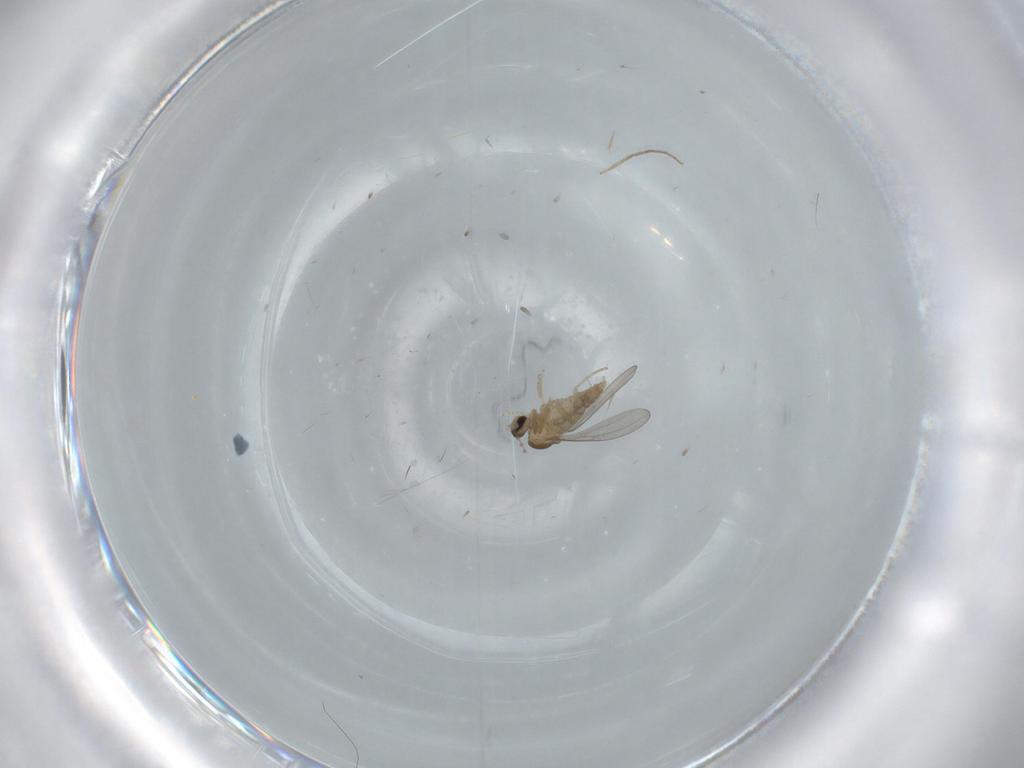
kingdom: Animalia
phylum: Arthropoda
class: Insecta
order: Diptera
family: Cecidomyiidae
